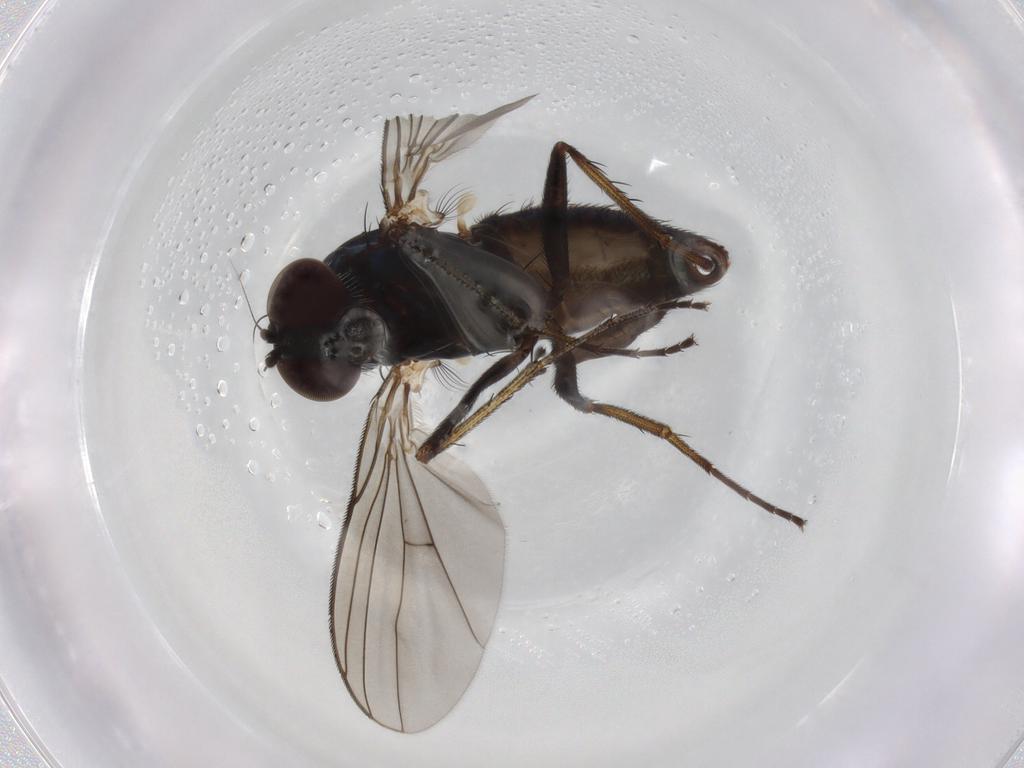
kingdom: Animalia
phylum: Arthropoda
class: Insecta
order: Diptera
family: Dolichopodidae
